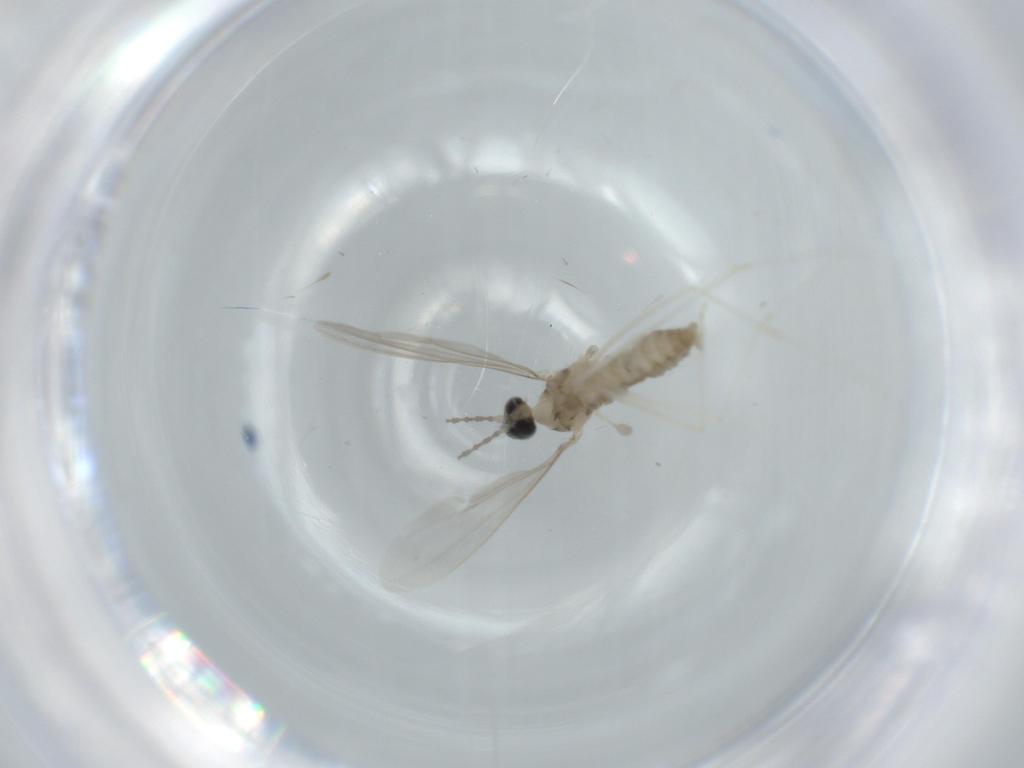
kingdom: Animalia
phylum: Arthropoda
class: Insecta
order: Diptera
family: Cecidomyiidae
